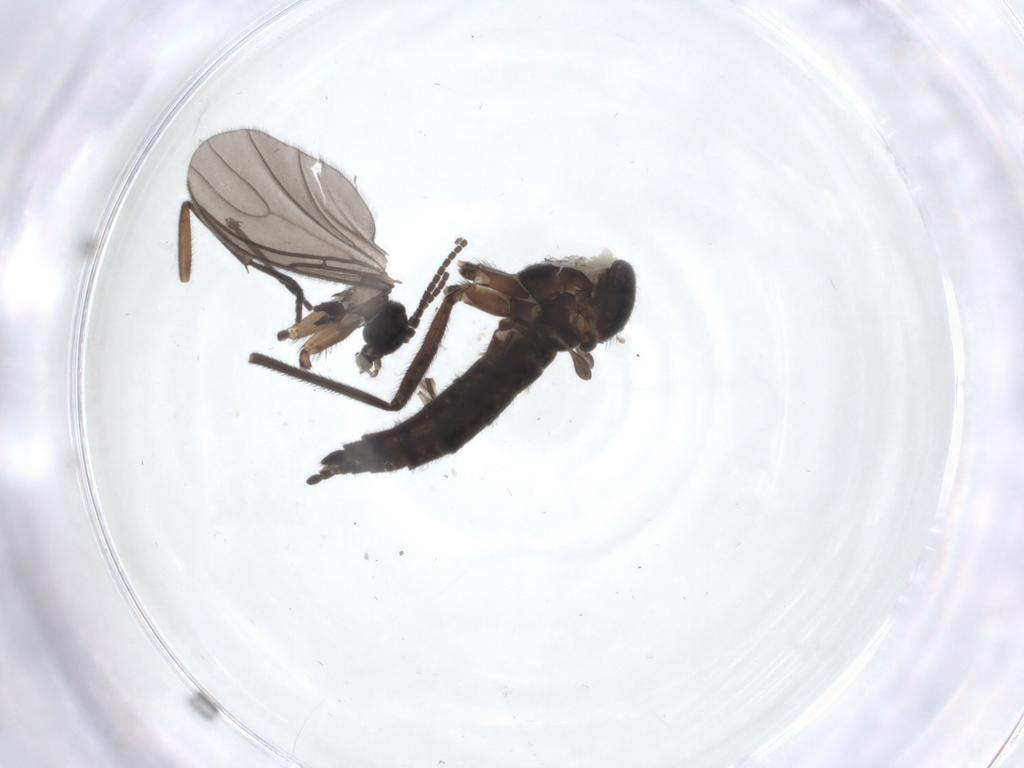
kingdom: Animalia
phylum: Arthropoda
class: Insecta
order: Diptera
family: Sciaridae
